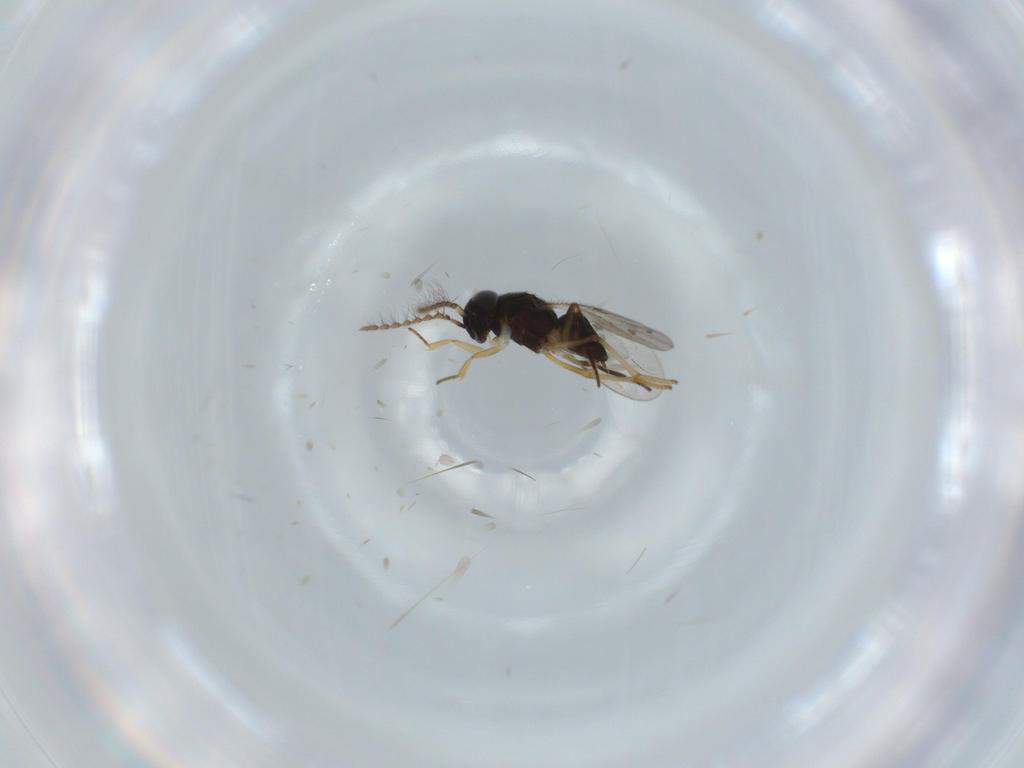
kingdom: Animalia
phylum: Arthropoda
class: Insecta
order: Hymenoptera
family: Encyrtidae
